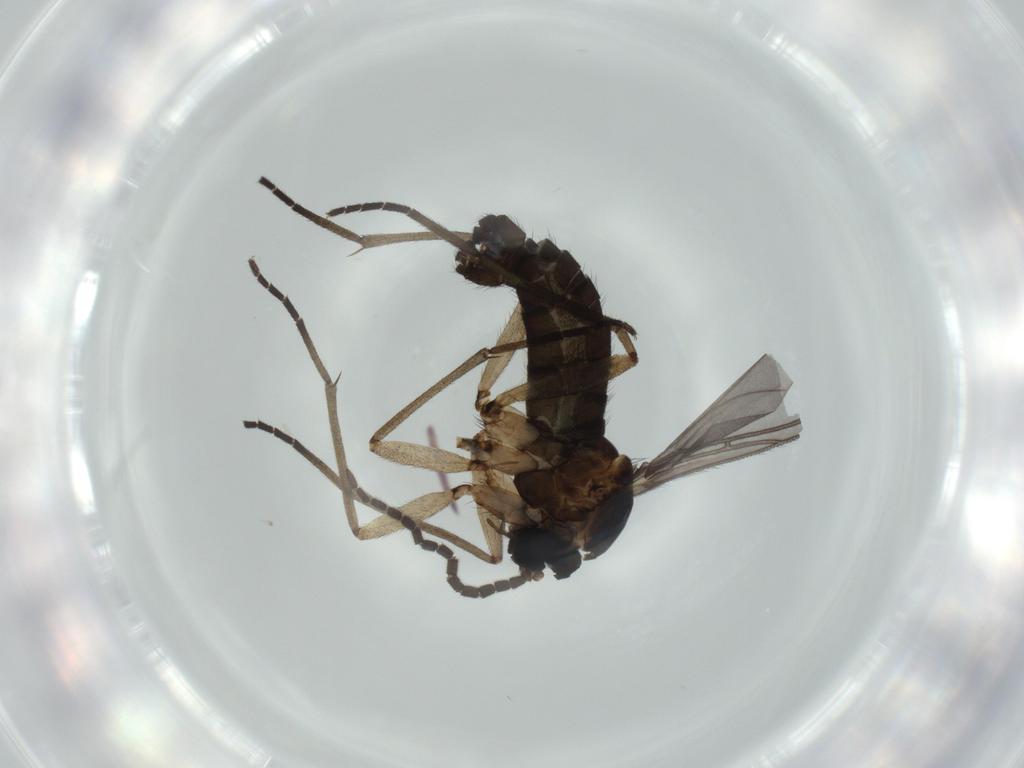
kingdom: Animalia
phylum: Arthropoda
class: Insecta
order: Diptera
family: Sciaridae
